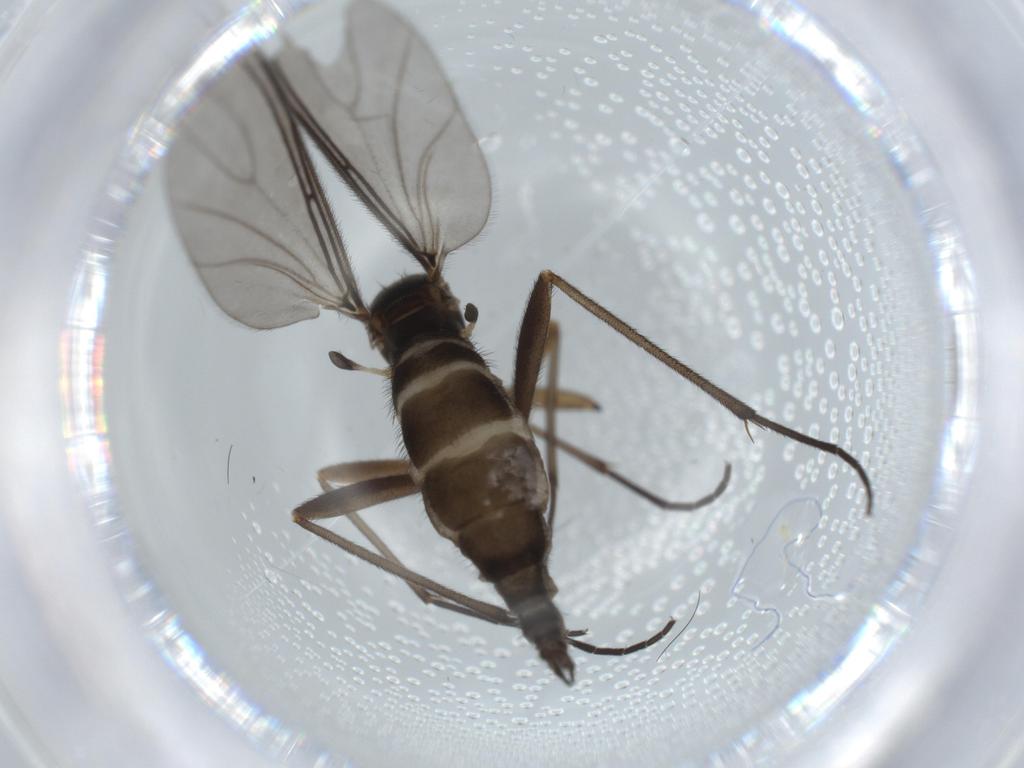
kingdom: Animalia
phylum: Arthropoda
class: Insecta
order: Diptera
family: Sciaridae
